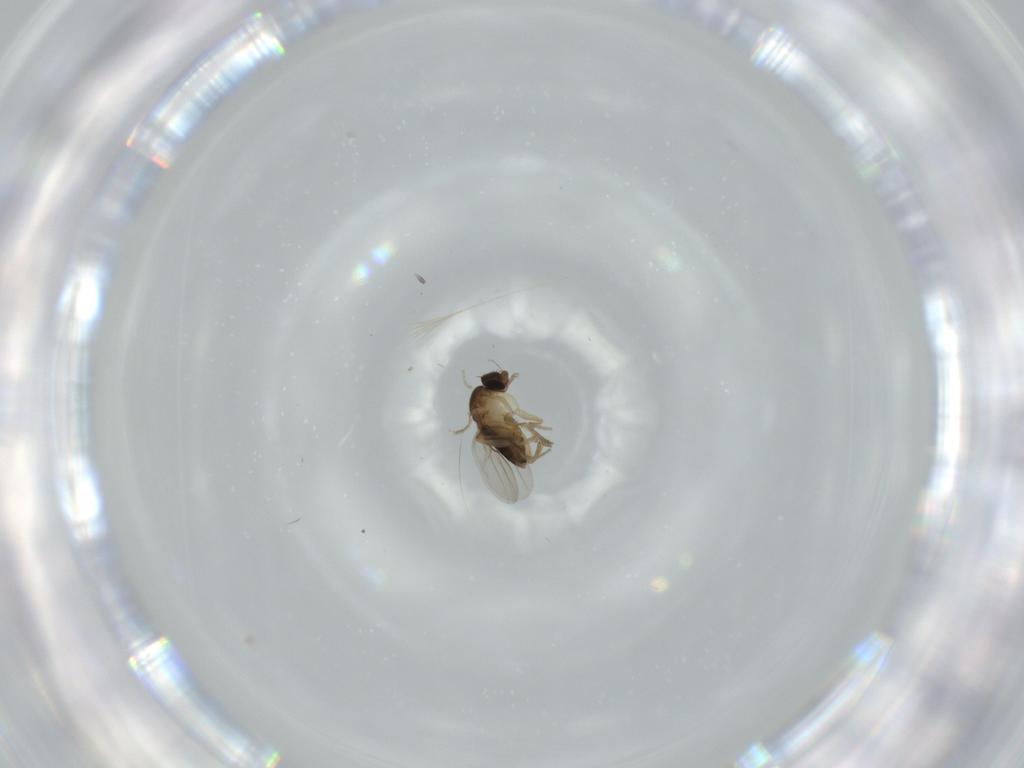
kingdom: Animalia
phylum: Arthropoda
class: Insecta
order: Diptera
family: Phoridae
